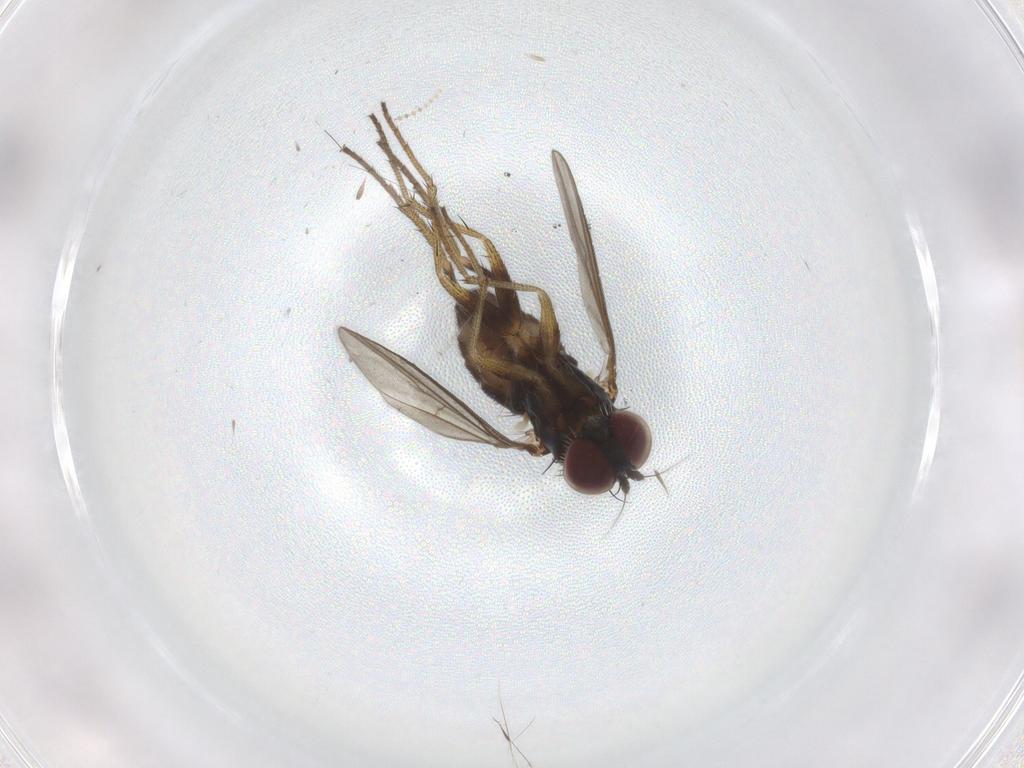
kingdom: Animalia
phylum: Arthropoda
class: Insecta
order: Diptera
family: Dolichopodidae
